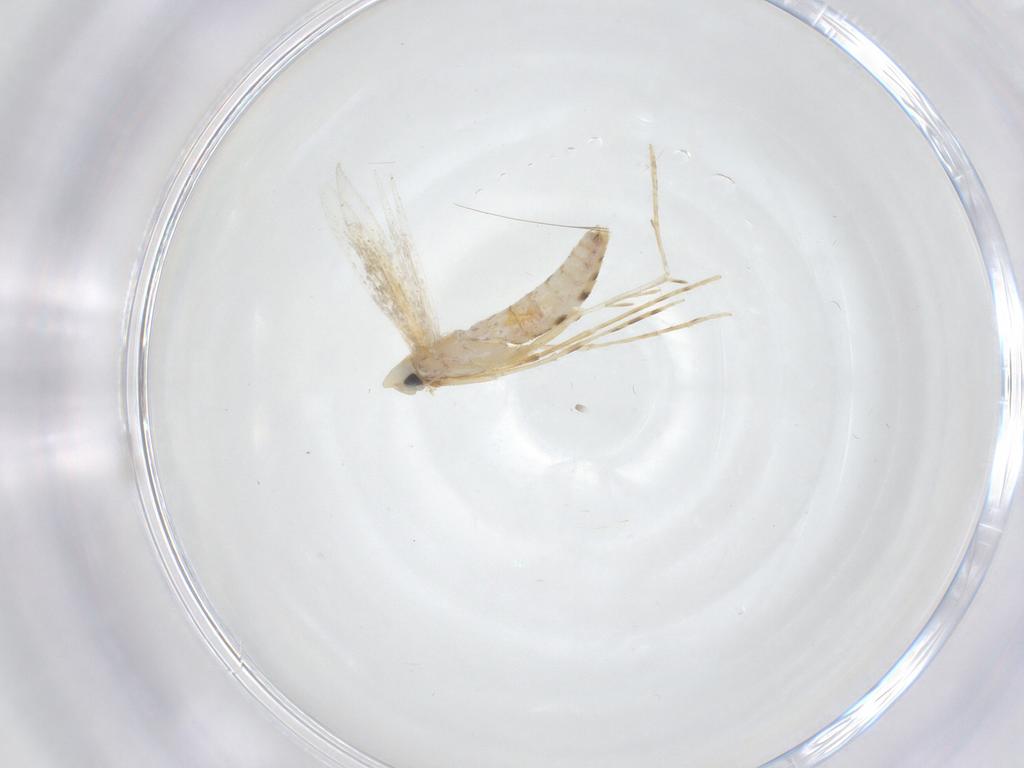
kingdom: Animalia
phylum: Arthropoda
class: Insecta
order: Lepidoptera
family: Tineidae
